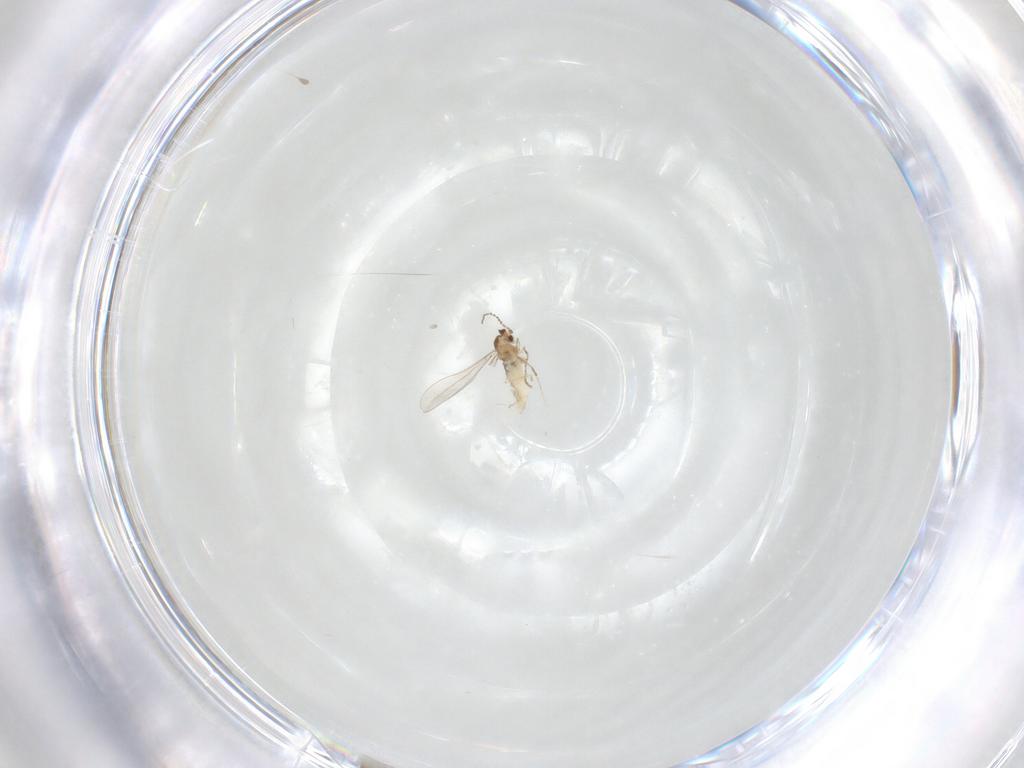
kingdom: Animalia
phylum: Arthropoda
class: Insecta
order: Diptera
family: Cecidomyiidae
